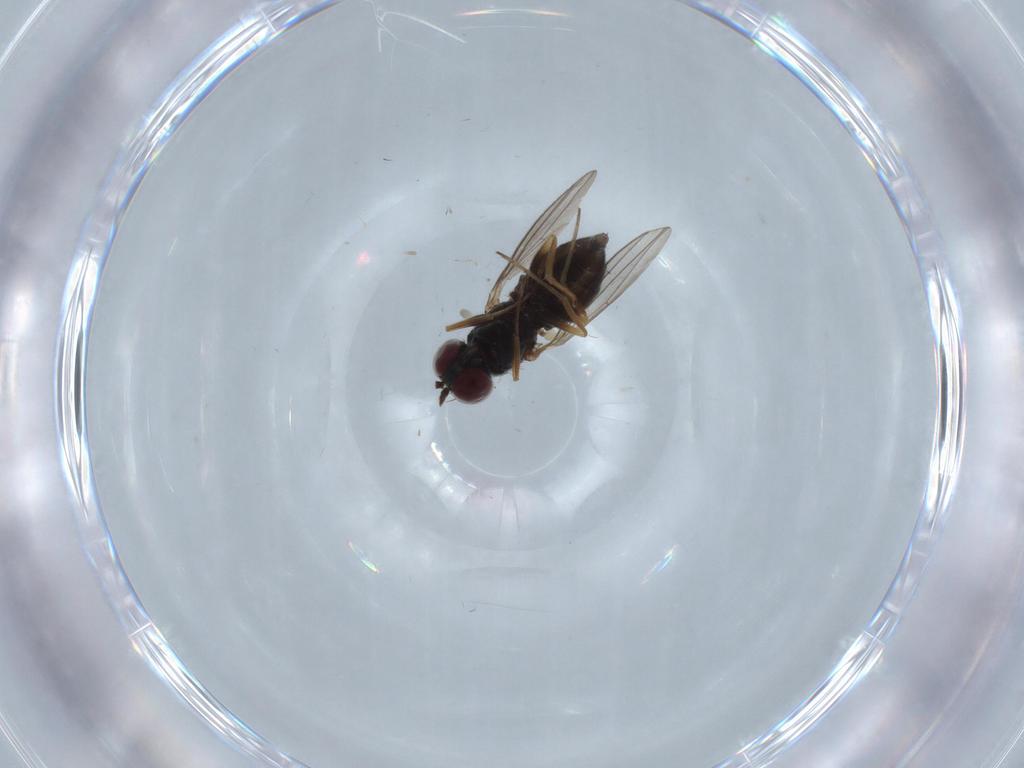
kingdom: Animalia
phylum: Arthropoda
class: Insecta
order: Diptera
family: Dolichopodidae
